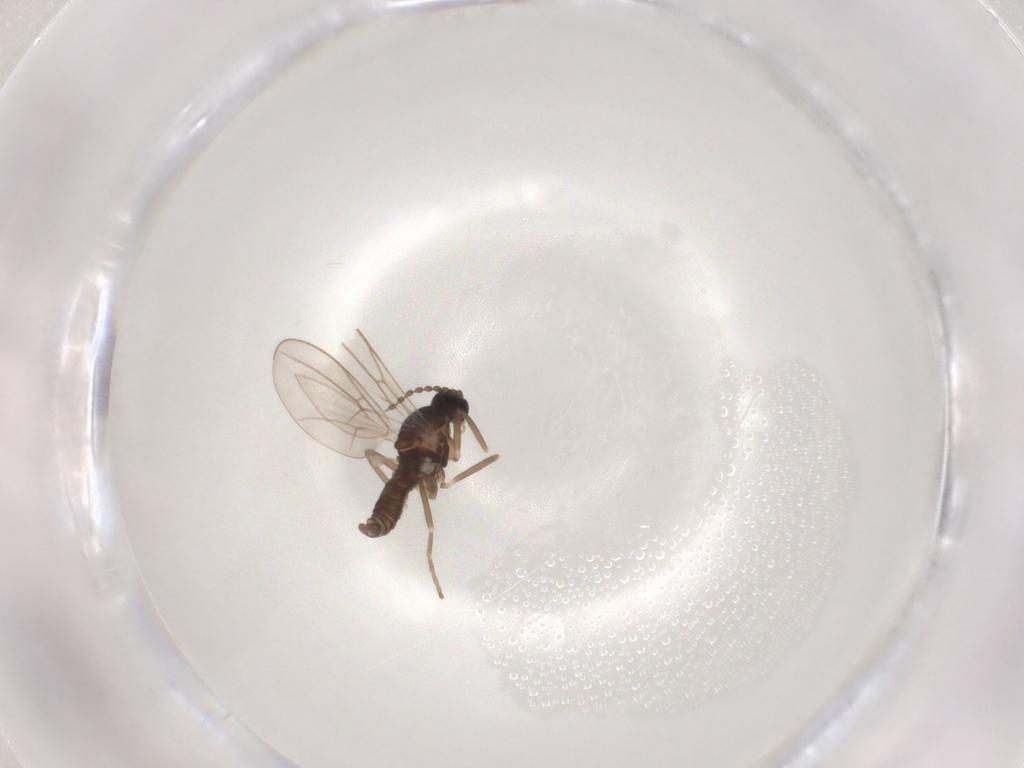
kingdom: Animalia
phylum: Arthropoda
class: Insecta
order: Diptera
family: Cecidomyiidae
